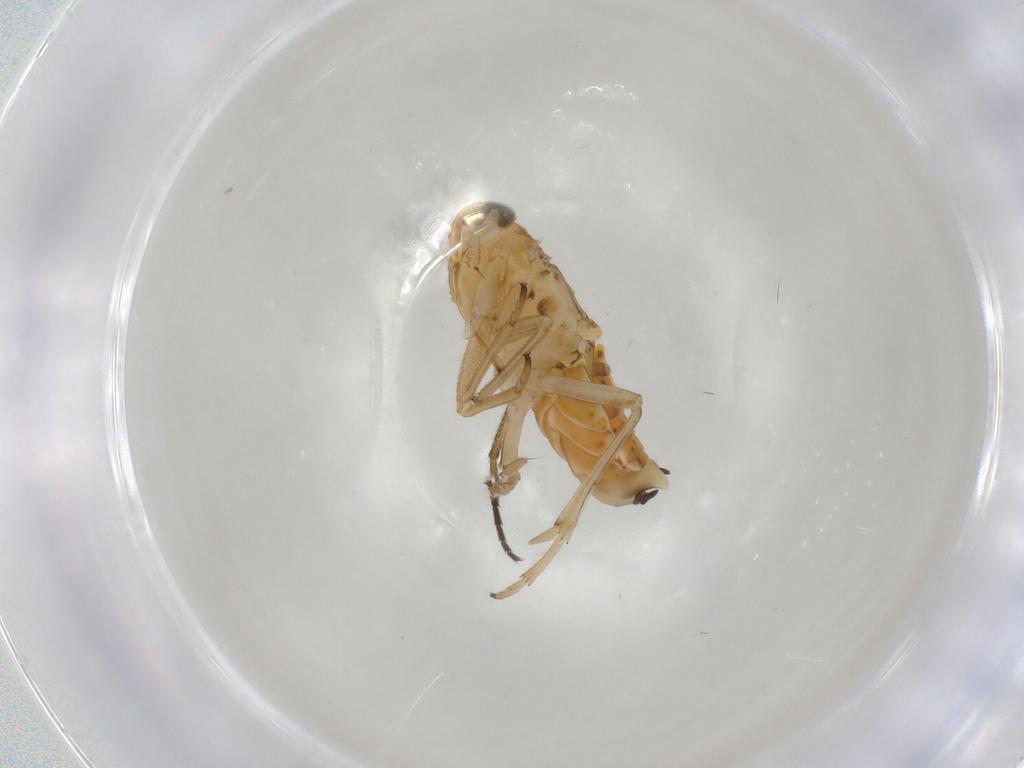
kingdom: Animalia
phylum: Arthropoda
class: Insecta
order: Hemiptera
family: Delphacidae
